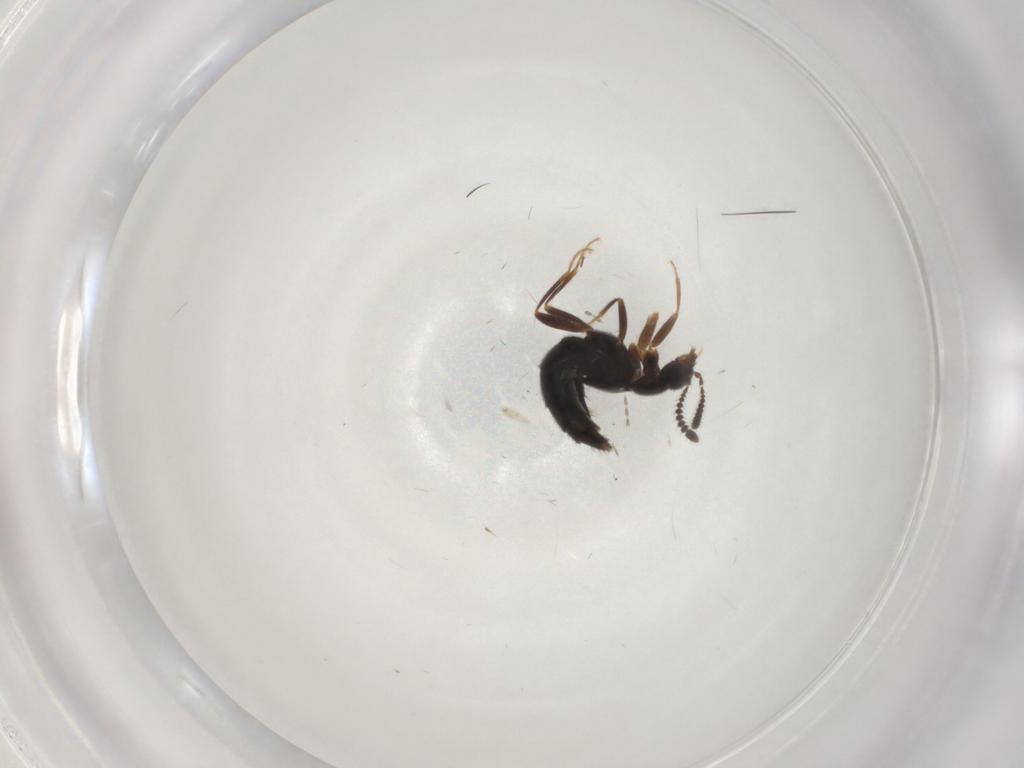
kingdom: Animalia
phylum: Arthropoda
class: Insecta
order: Coleoptera
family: Staphylinidae
